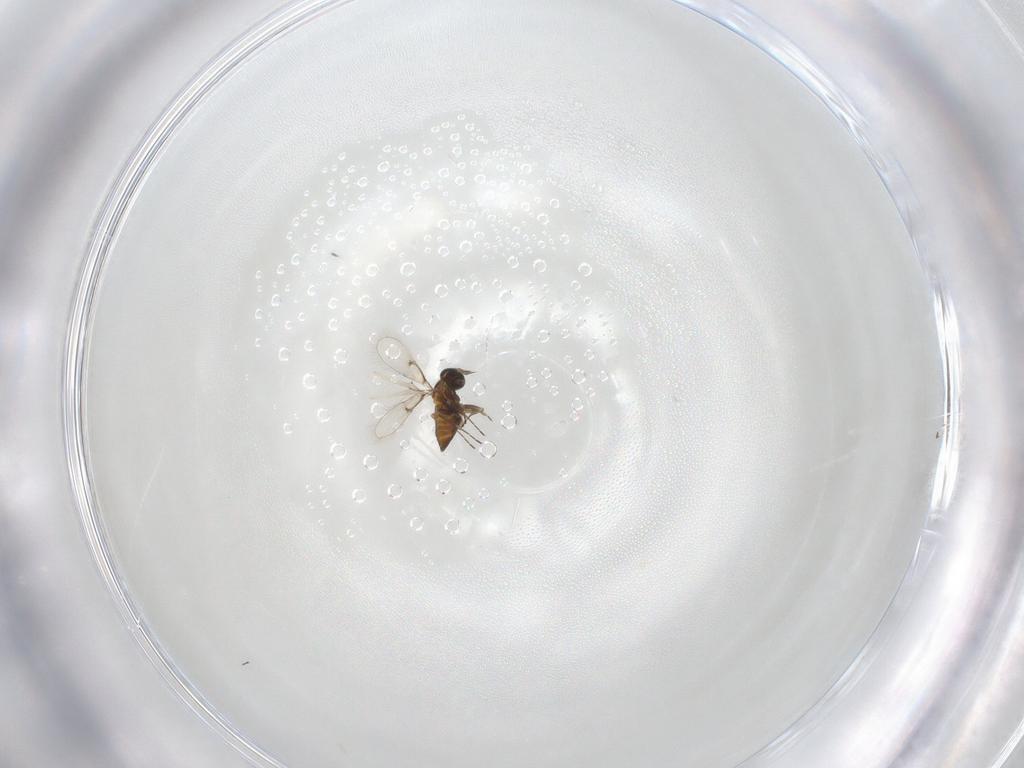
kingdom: Animalia
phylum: Arthropoda
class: Insecta
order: Hymenoptera
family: Trichogrammatidae
